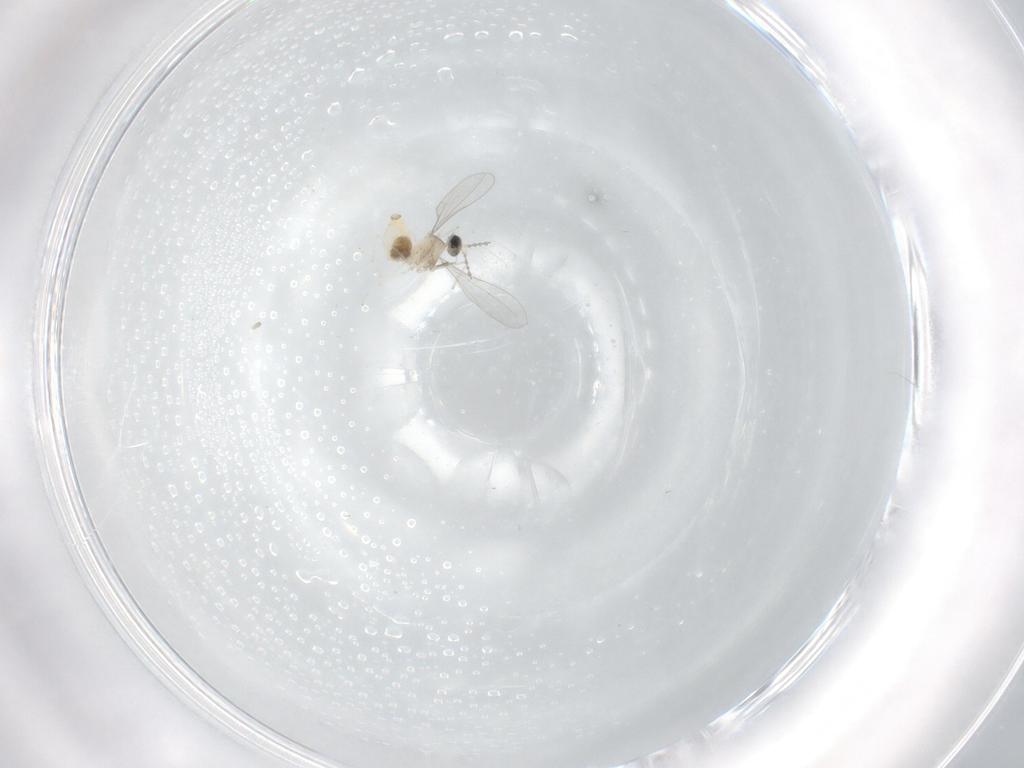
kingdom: Animalia
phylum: Arthropoda
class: Insecta
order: Diptera
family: Cecidomyiidae
